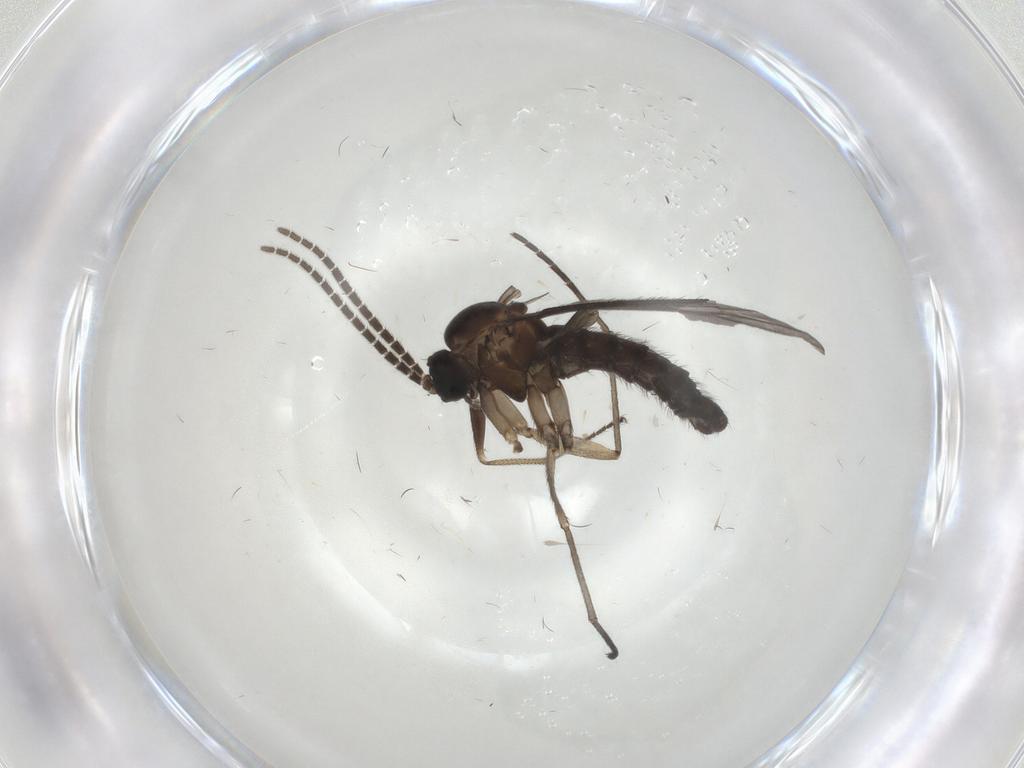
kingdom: Animalia
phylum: Arthropoda
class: Insecta
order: Diptera
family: Sciaridae
